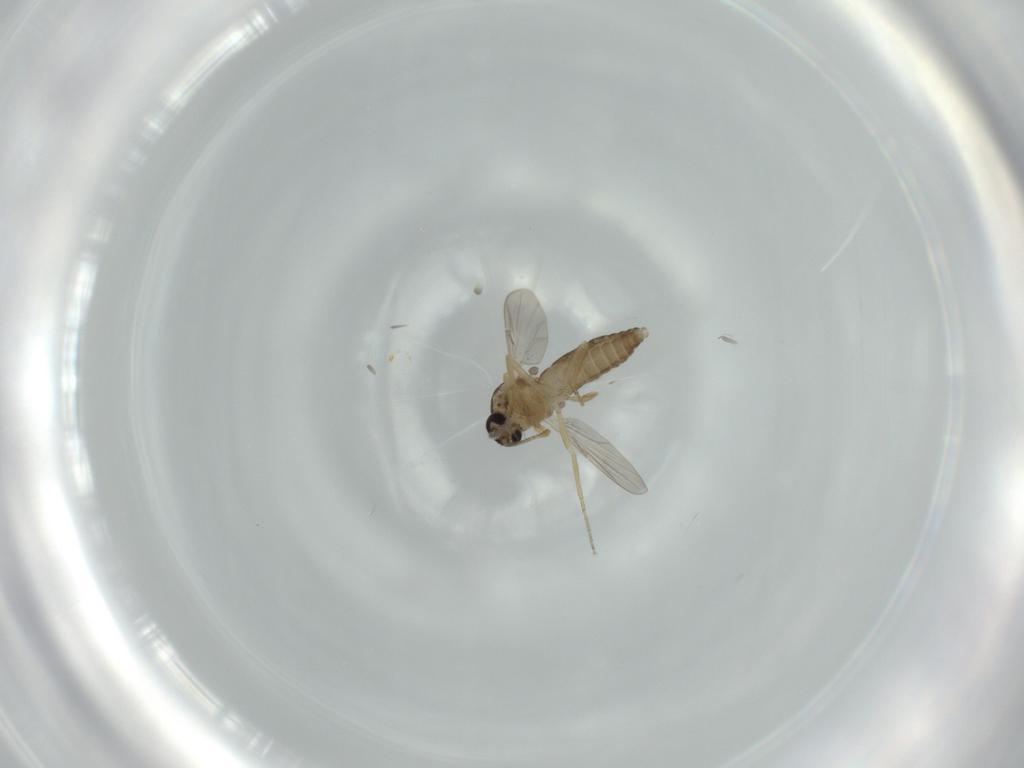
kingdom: Animalia
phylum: Arthropoda
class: Insecta
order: Diptera
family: Ceratopogonidae
